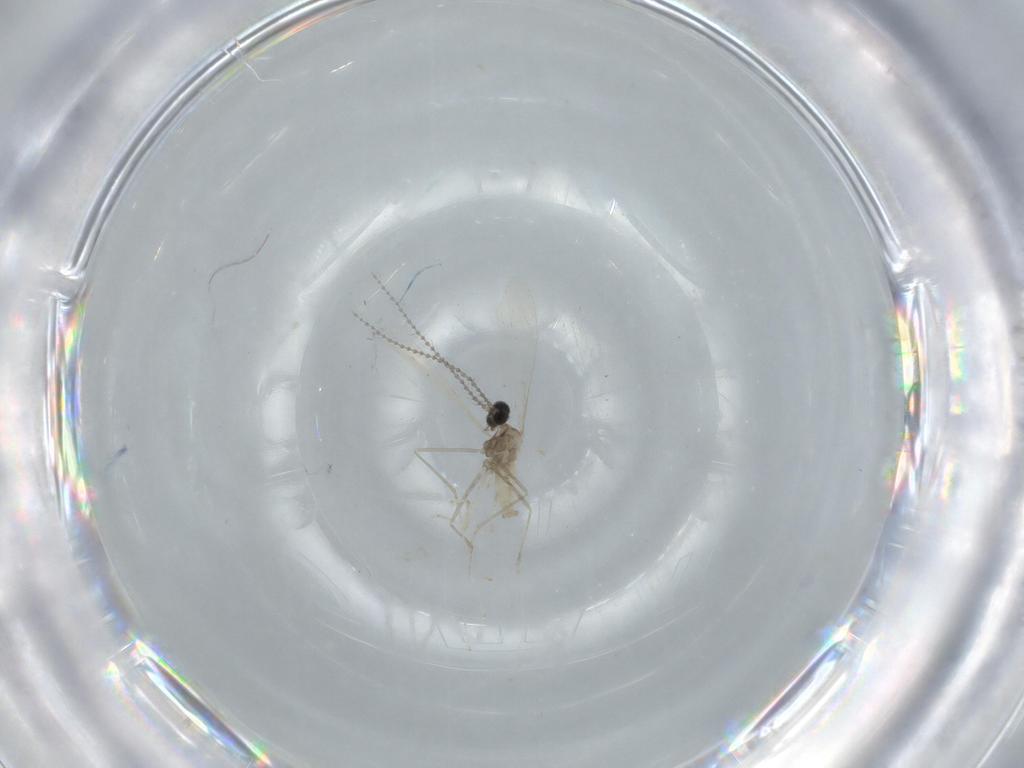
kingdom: Animalia
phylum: Arthropoda
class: Insecta
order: Diptera
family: Cecidomyiidae
